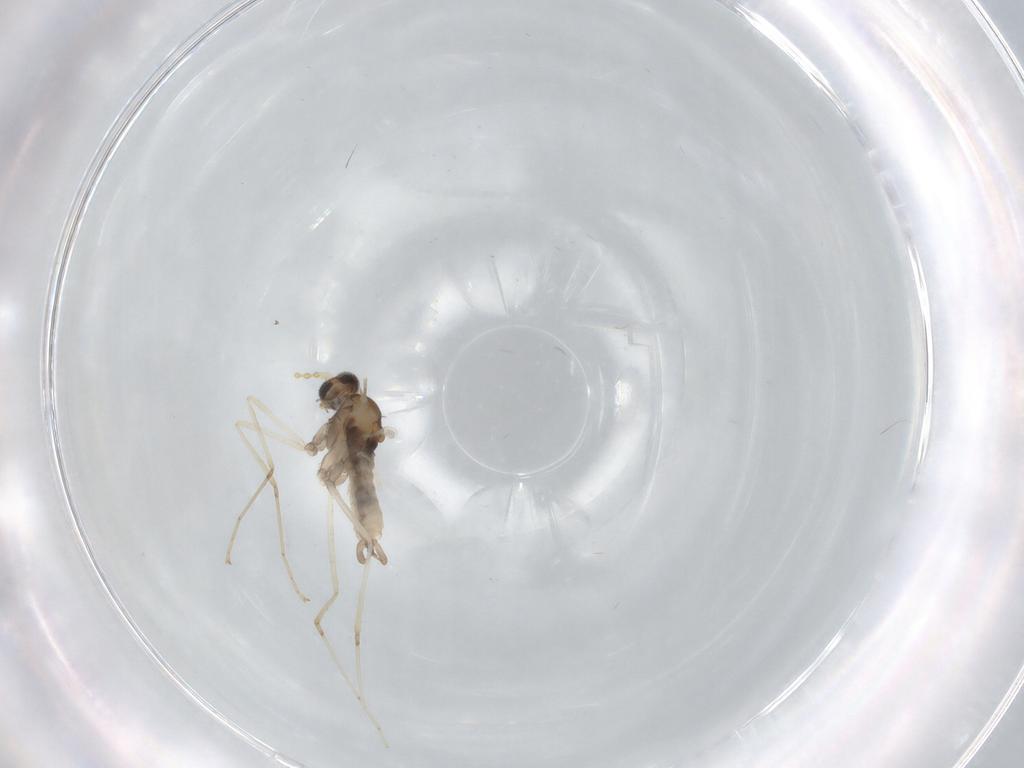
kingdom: Animalia
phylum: Arthropoda
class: Insecta
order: Diptera
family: Cecidomyiidae
